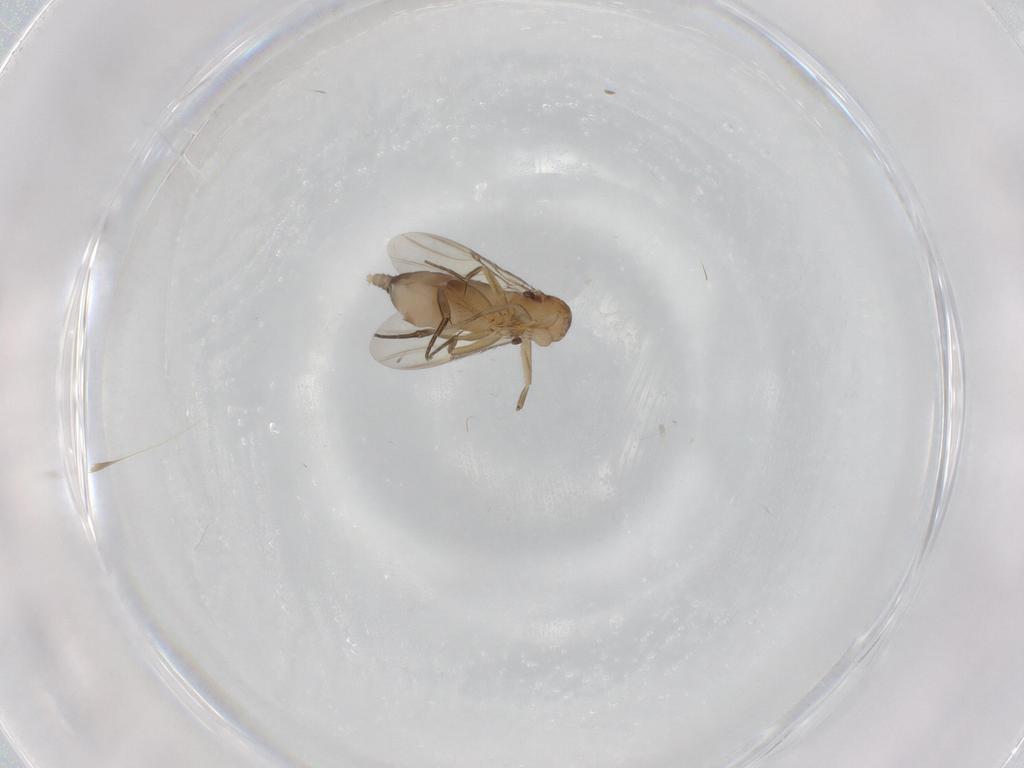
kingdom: Animalia
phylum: Arthropoda
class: Insecta
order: Diptera
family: Phoridae
